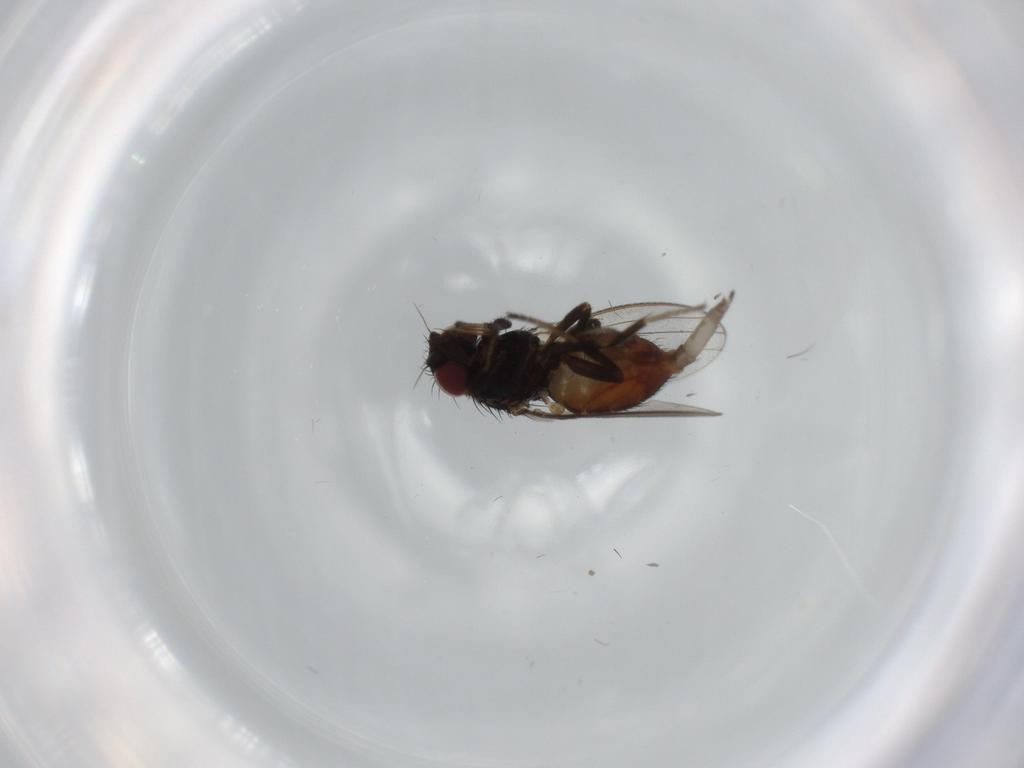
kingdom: Animalia
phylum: Arthropoda
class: Insecta
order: Diptera
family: Milichiidae
